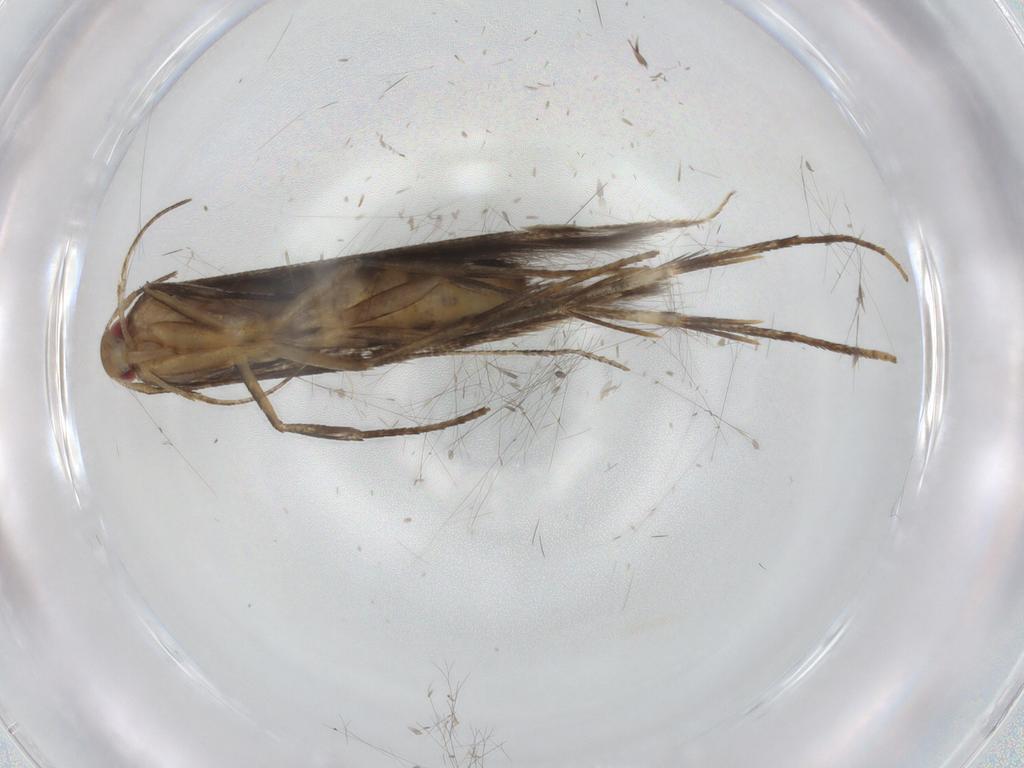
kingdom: Animalia
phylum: Arthropoda
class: Insecta
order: Lepidoptera
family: Cosmopterigidae
